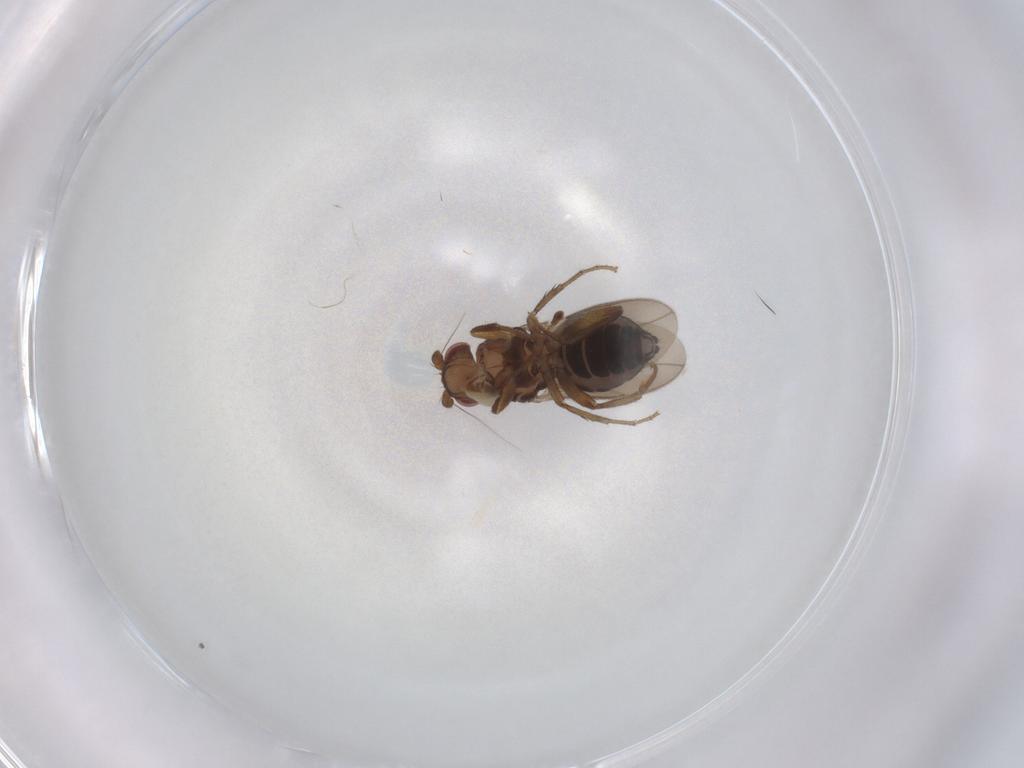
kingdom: Animalia
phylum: Arthropoda
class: Insecta
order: Diptera
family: Sphaeroceridae
